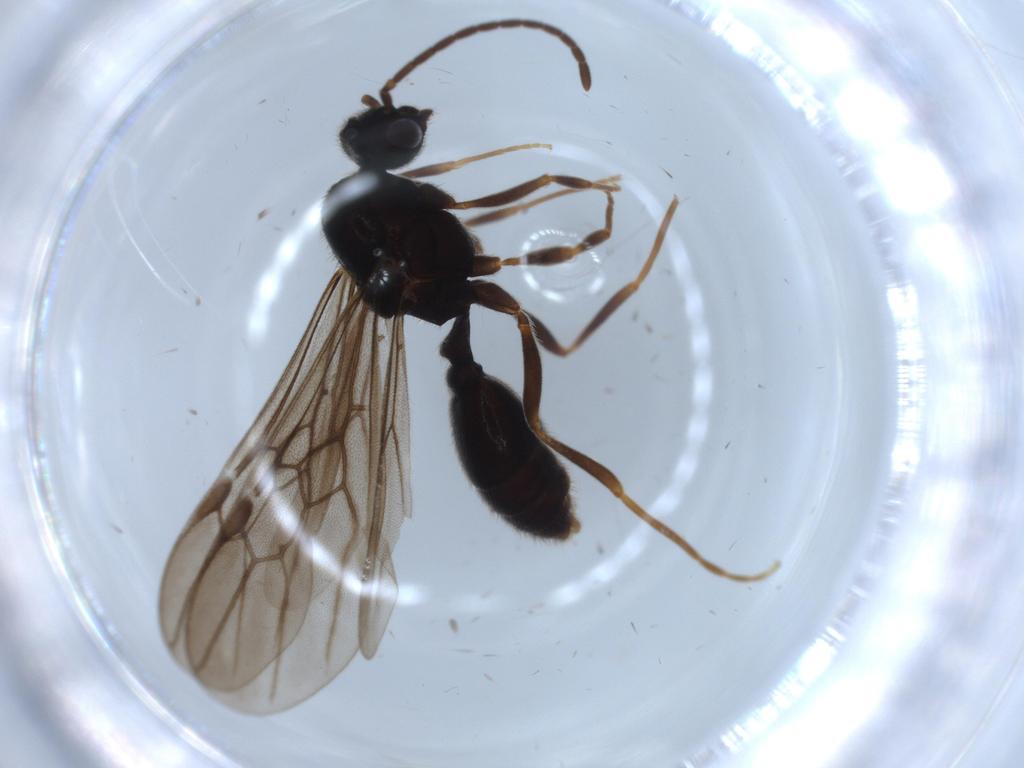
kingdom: Animalia
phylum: Arthropoda
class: Insecta
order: Hymenoptera
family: Formicidae
